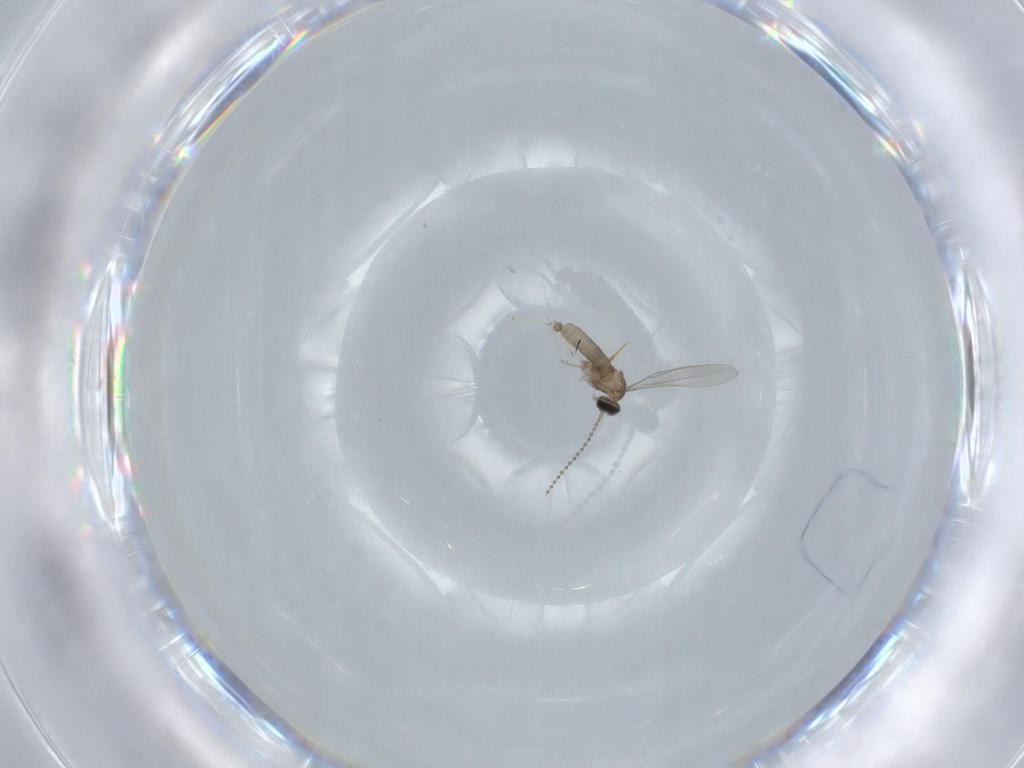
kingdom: Animalia
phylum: Arthropoda
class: Insecta
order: Diptera
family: Cecidomyiidae
